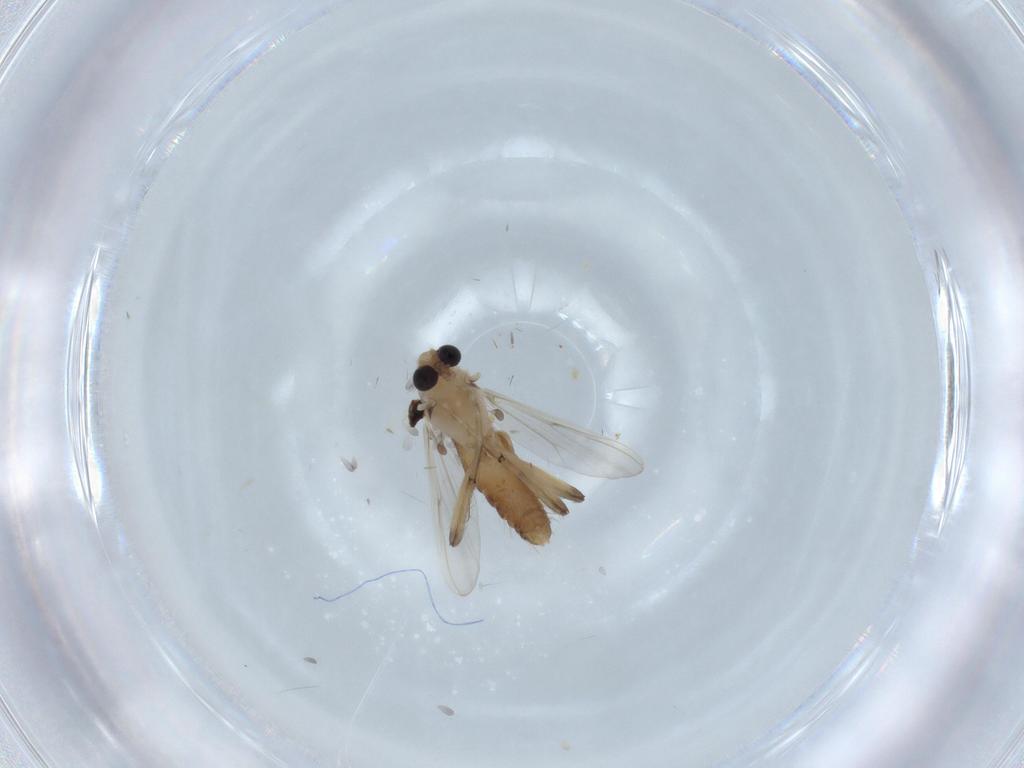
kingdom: Animalia
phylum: Arthropoda
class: Insecta
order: Diptera
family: Chironomidae
